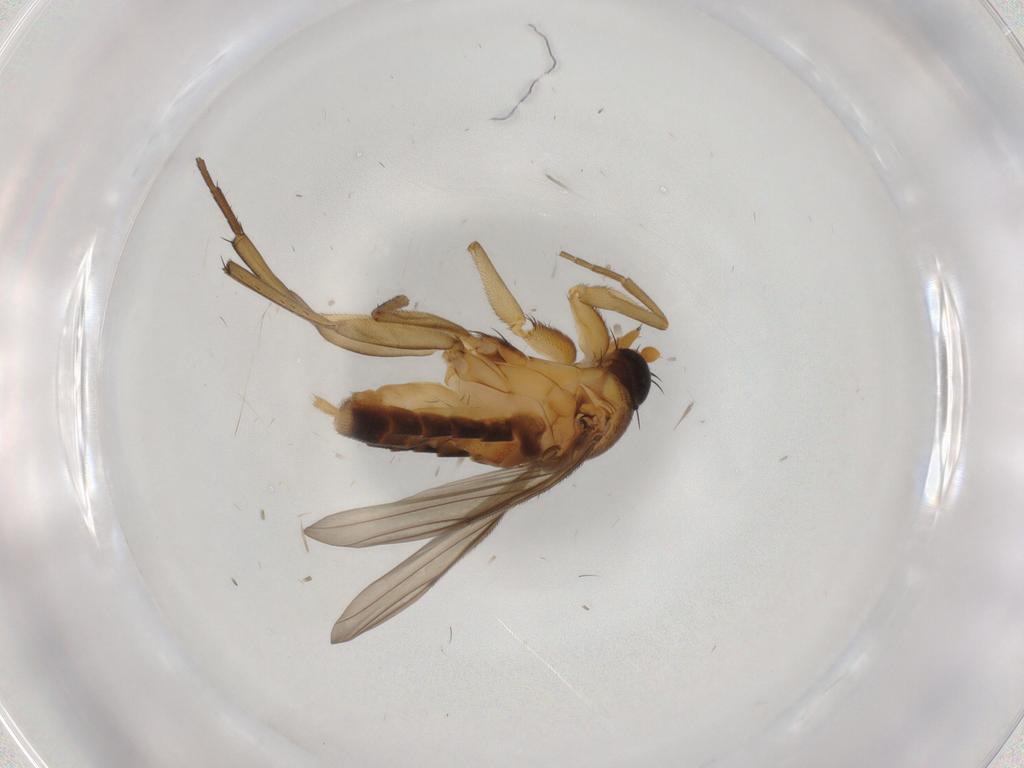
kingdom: Animalia
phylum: Arthropoda
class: Insecta
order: Diptera
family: Phoridae
